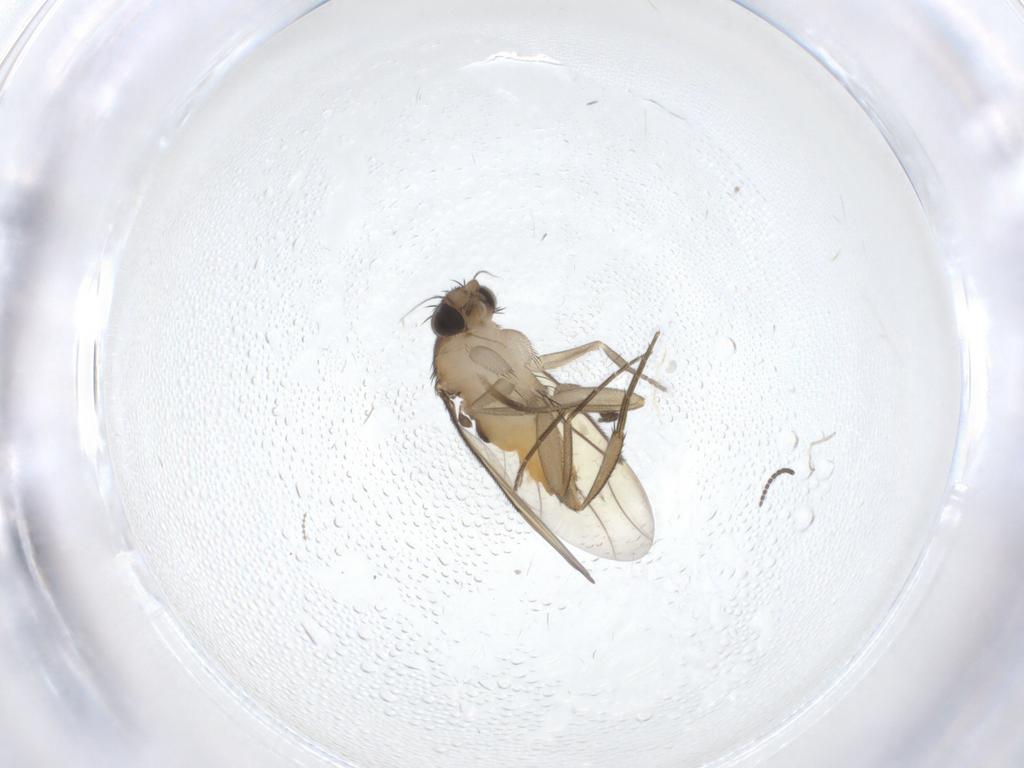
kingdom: Animalia
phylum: Arthropoda
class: Insecta
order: Diptera
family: Chironomidae
